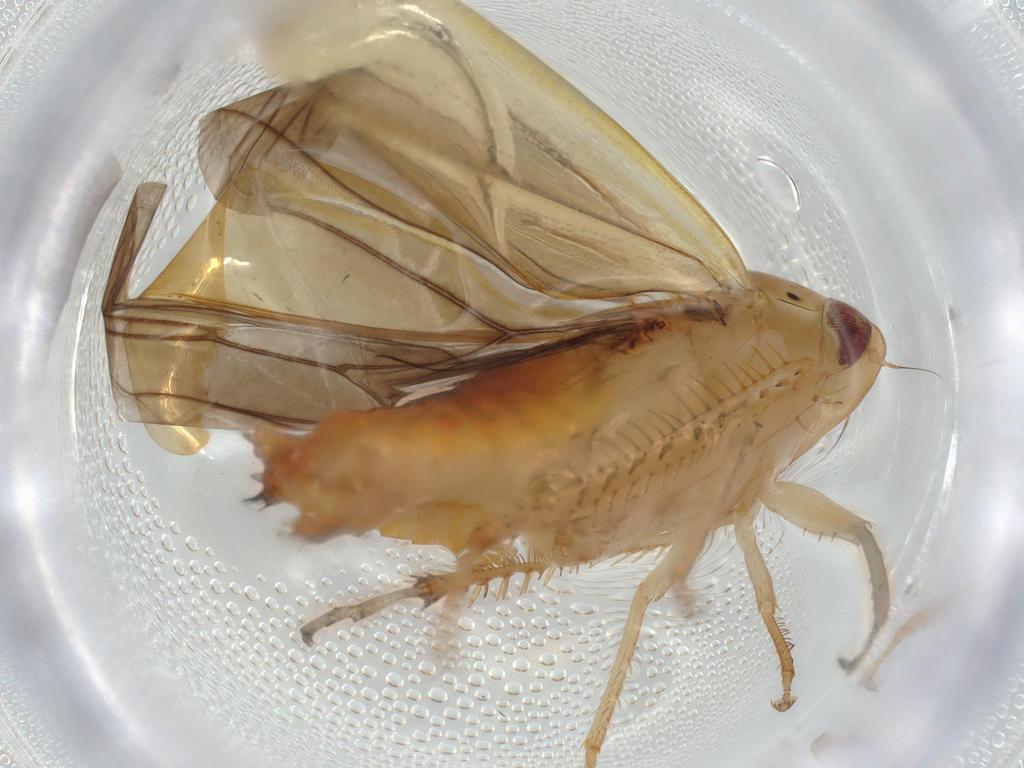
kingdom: Animalia
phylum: Arthropoda
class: Insecta
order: Hemiptera
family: Cicadellidae
